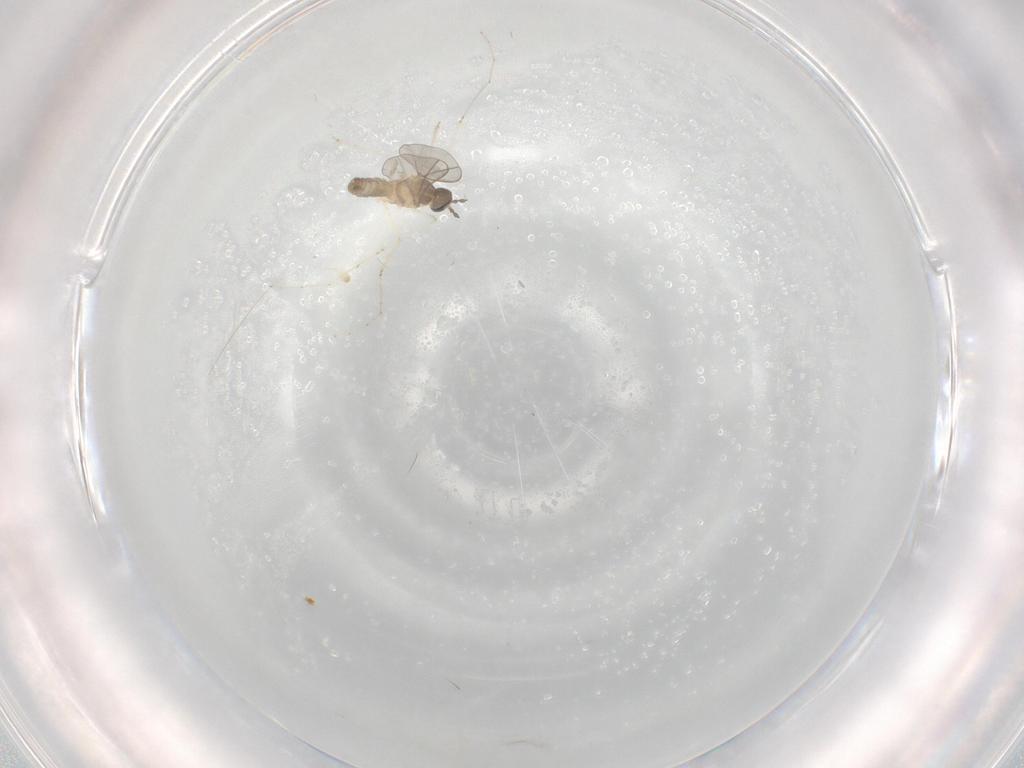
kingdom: Animalia
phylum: Arthropoda
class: Insecta
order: Diptera
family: Cecidomyiidae
